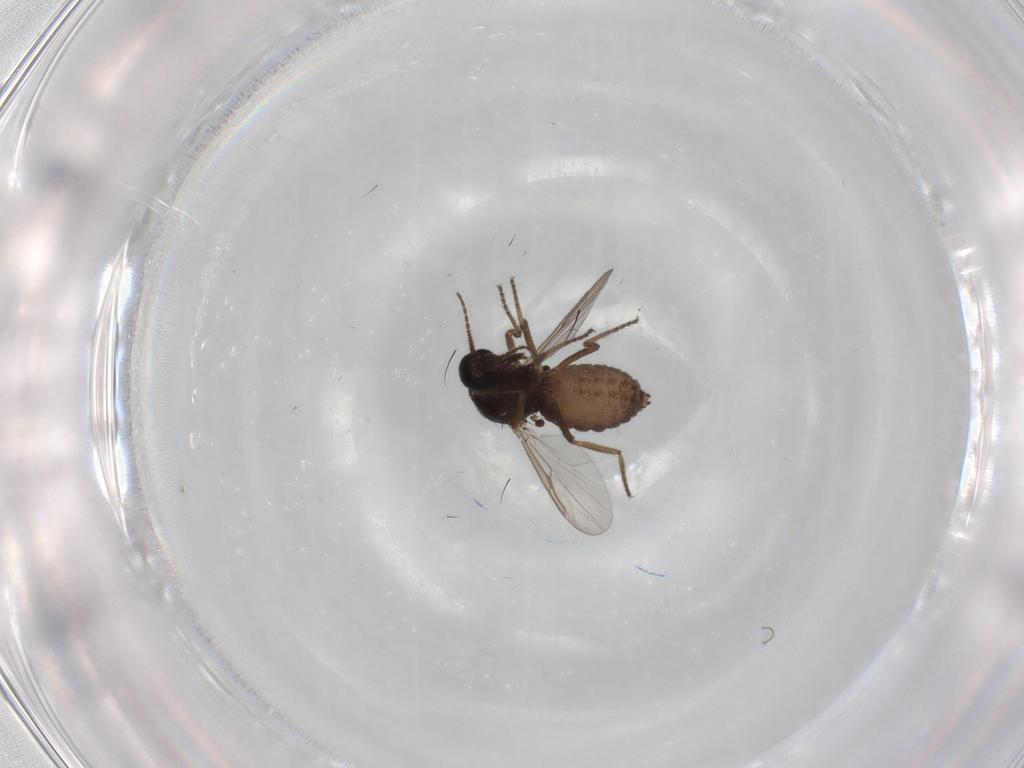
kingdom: Animalia
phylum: Arthropoda
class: Insecta
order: Diptera
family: Ceratopogonidae
